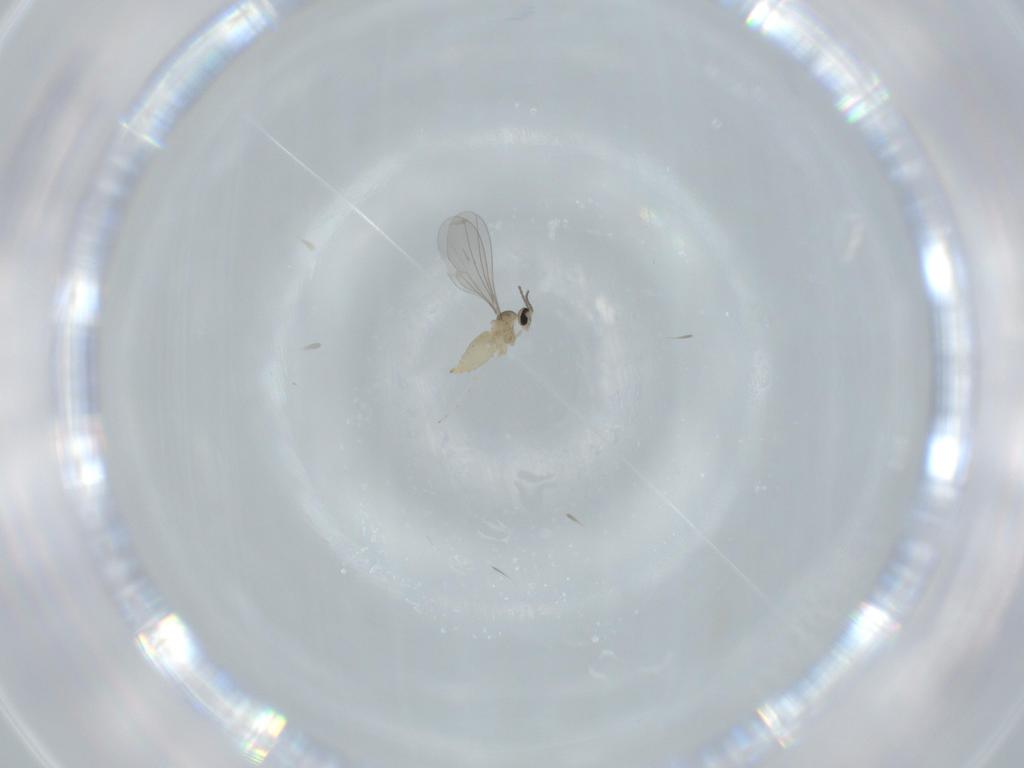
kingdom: Animalia
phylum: Arthropoda
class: Insecta
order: Diptera
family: Cecidomyiidae
